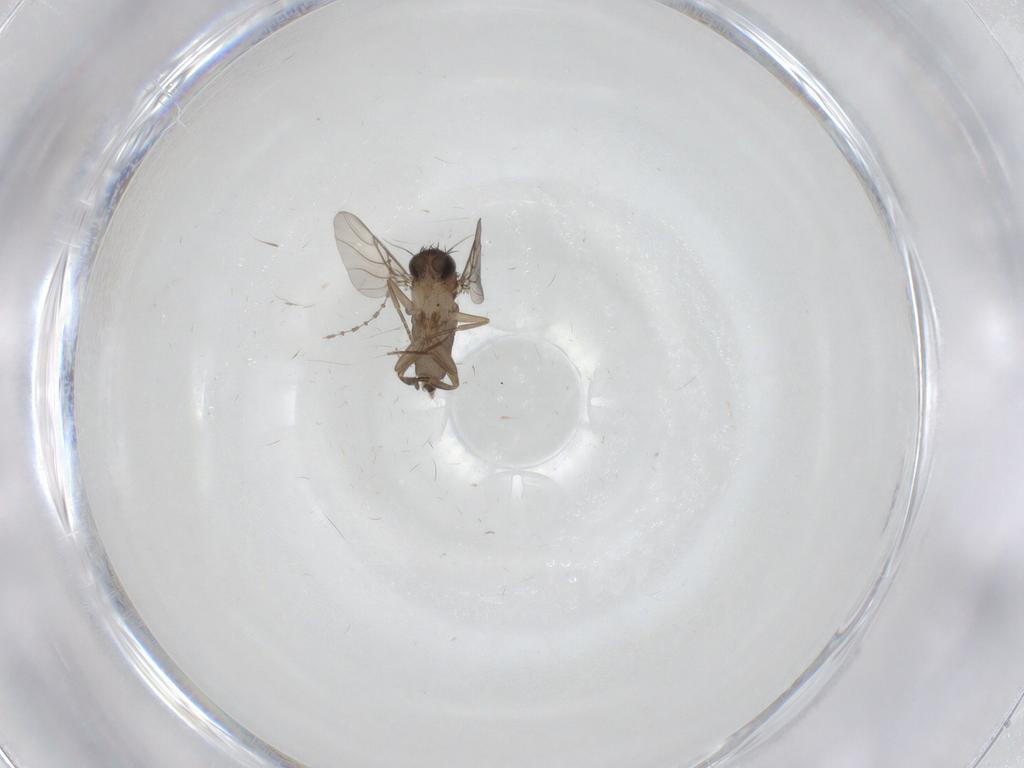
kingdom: Animalia
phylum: Arthropoda
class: Insecta
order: Diptera
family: Phoridae
